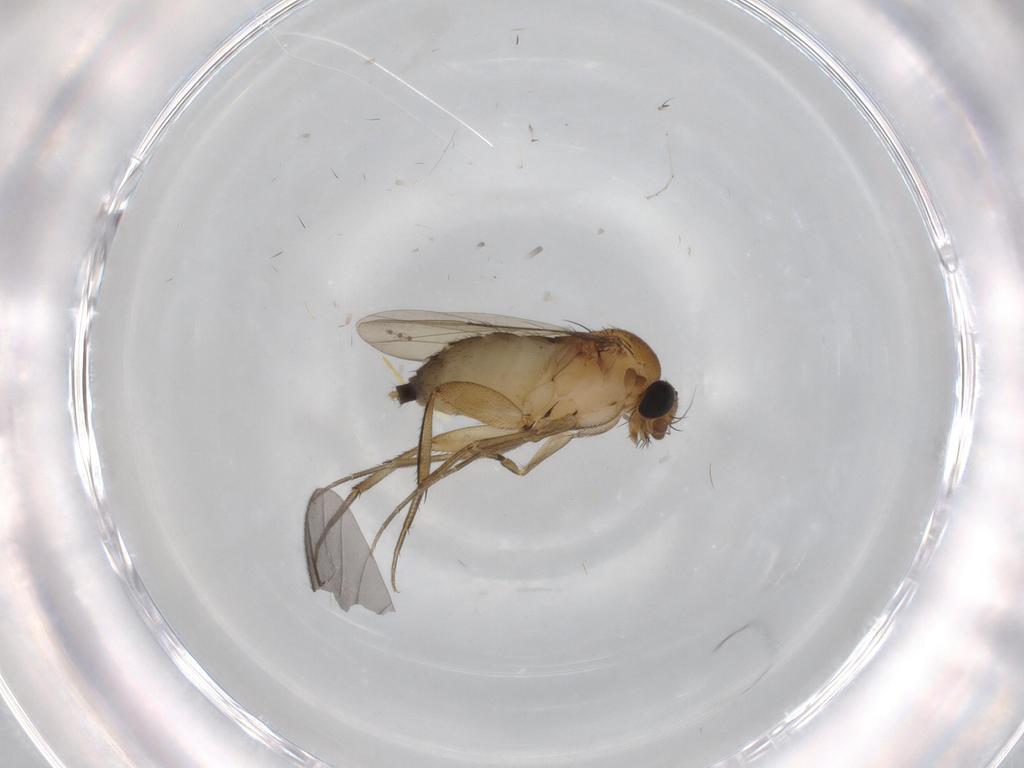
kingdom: Animalia
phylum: Arthropoda
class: Insecta
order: Diptera
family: Phoridae
